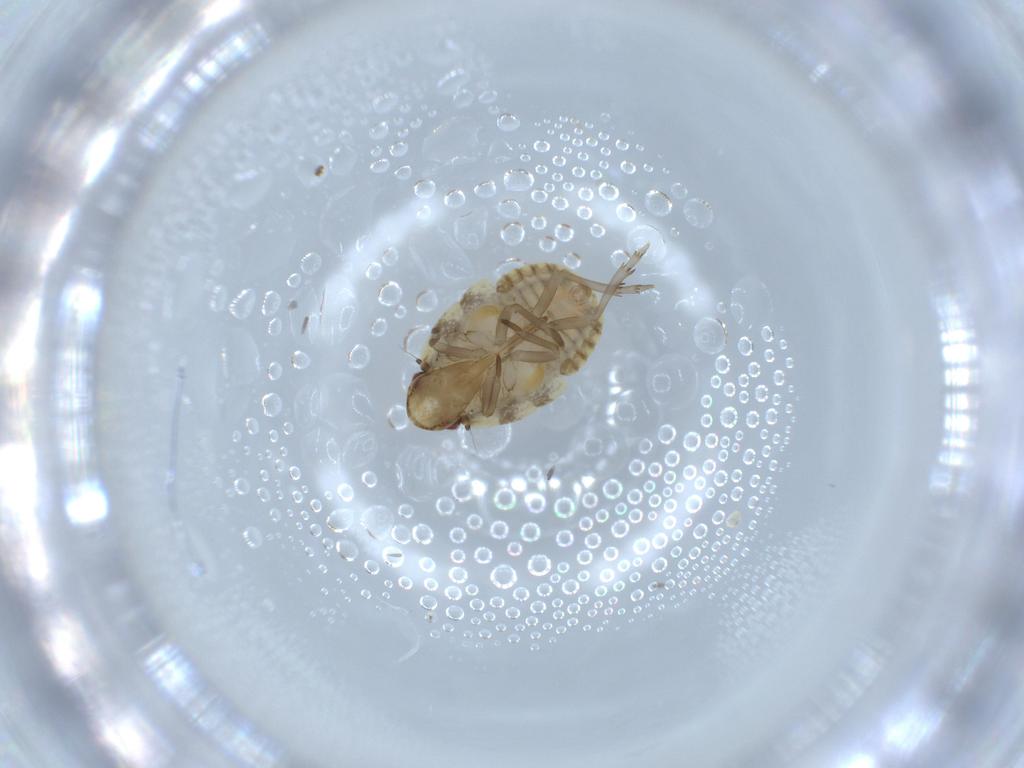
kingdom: Animalia
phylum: Arthropoda
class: Insecta
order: Hemiptera
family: Flatidae
